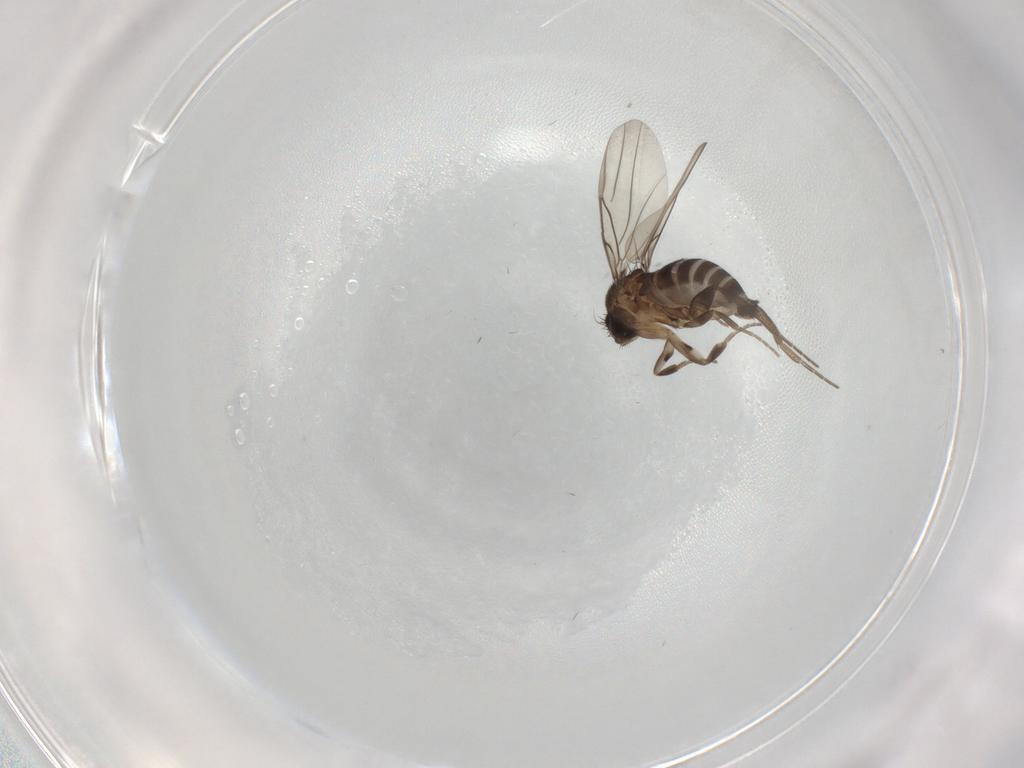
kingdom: Animalia
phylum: Arthropoda
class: Insecta
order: Diptera
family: Phoridae
